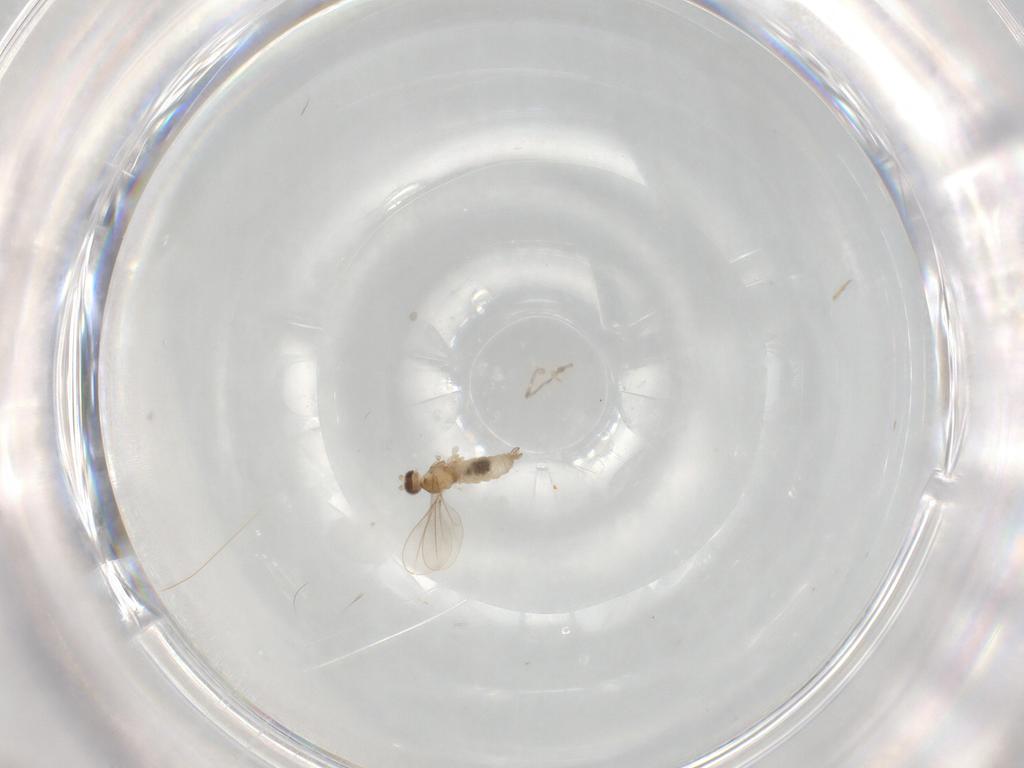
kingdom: Animalia
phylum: Arthropoda
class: Insecta
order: Diptera
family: Cecidomyiidae
